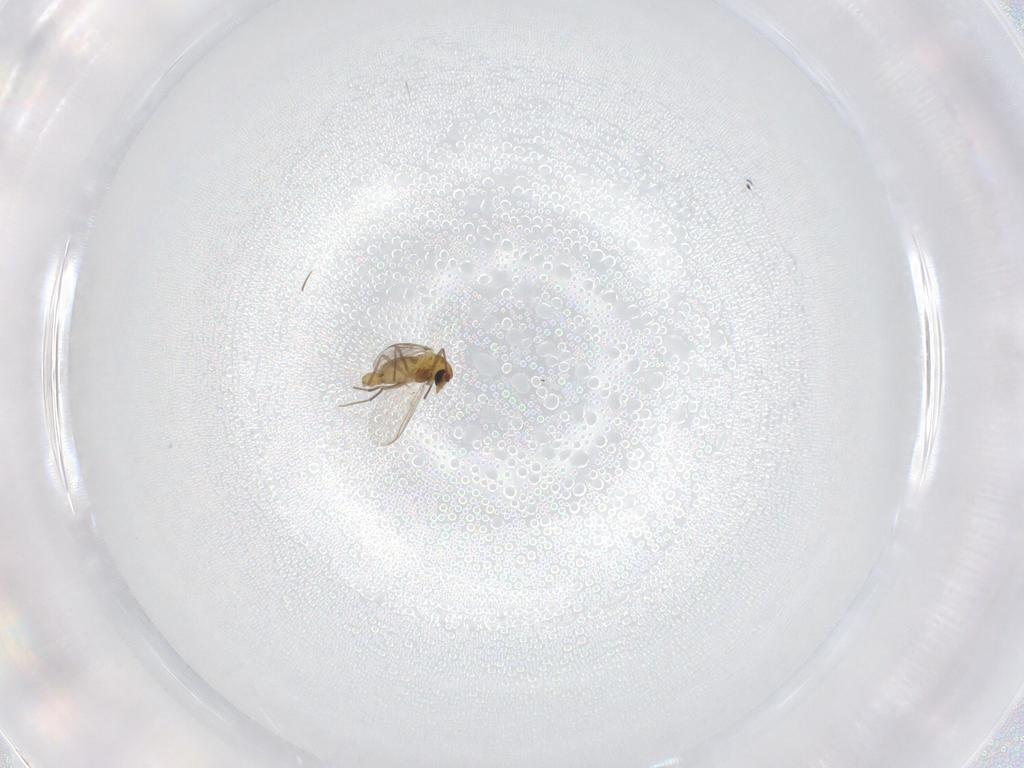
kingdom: Animalia
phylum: Arthropoda
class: Insecta
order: Diptera
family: Chironomidae
